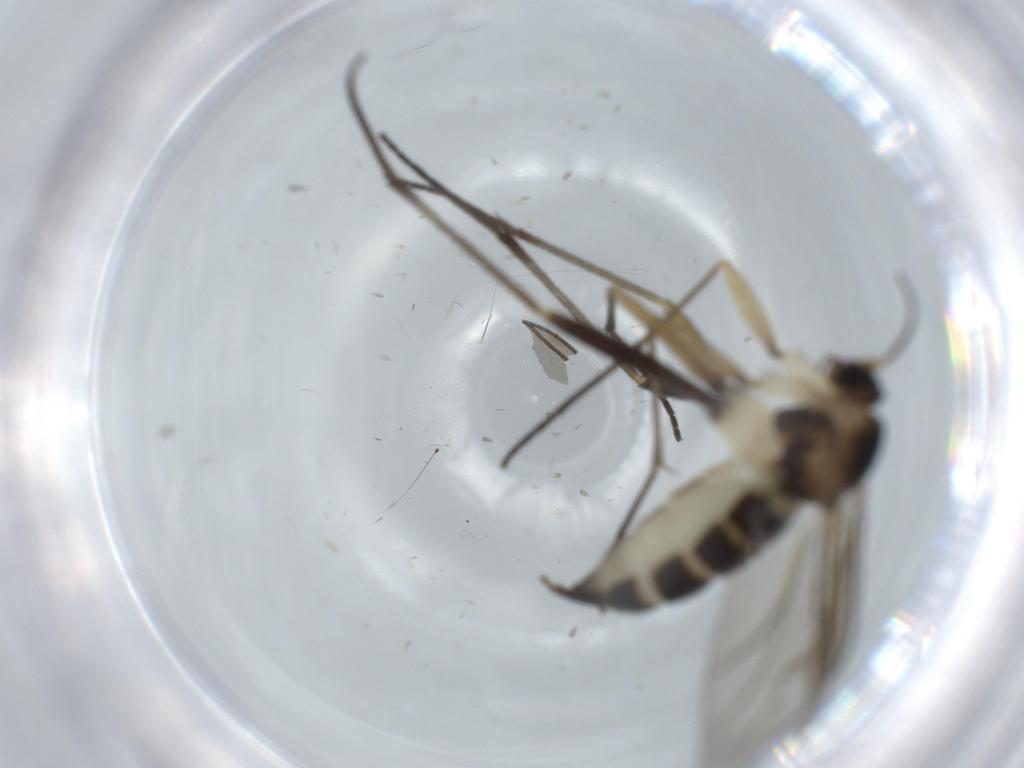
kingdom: Animalia
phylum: Arthropoda
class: Insecta
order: Diptera
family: Sciaridae
